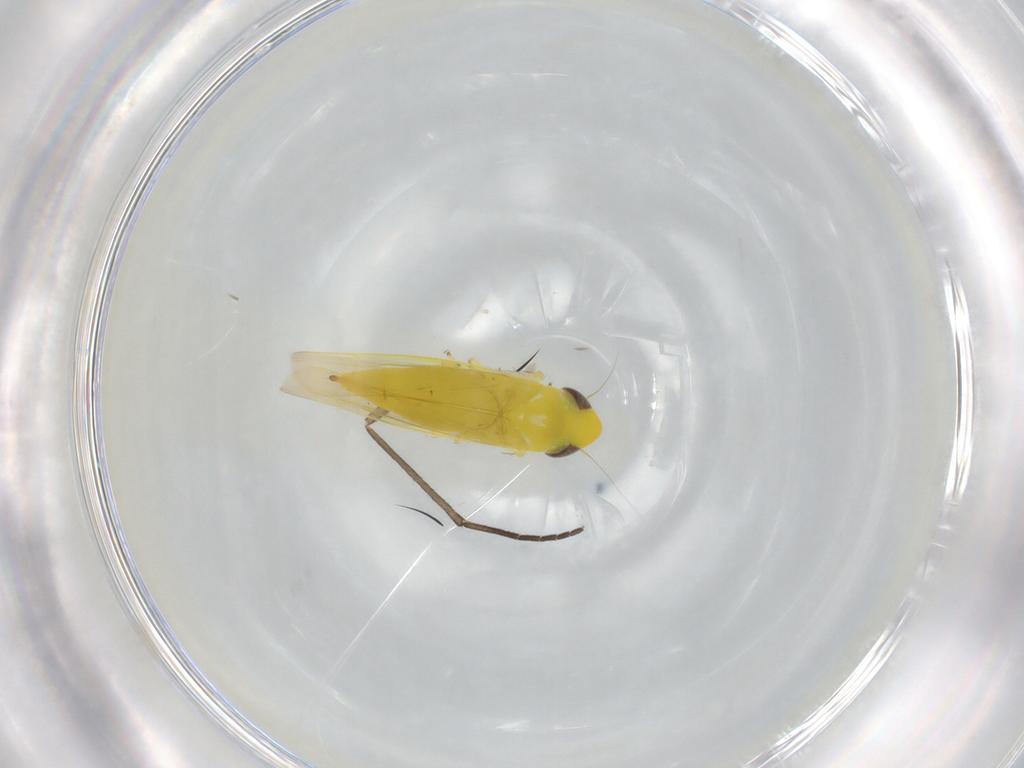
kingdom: Animalia
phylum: Arthropoda
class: Insecta
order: Hemiptera
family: Cicadellidae
